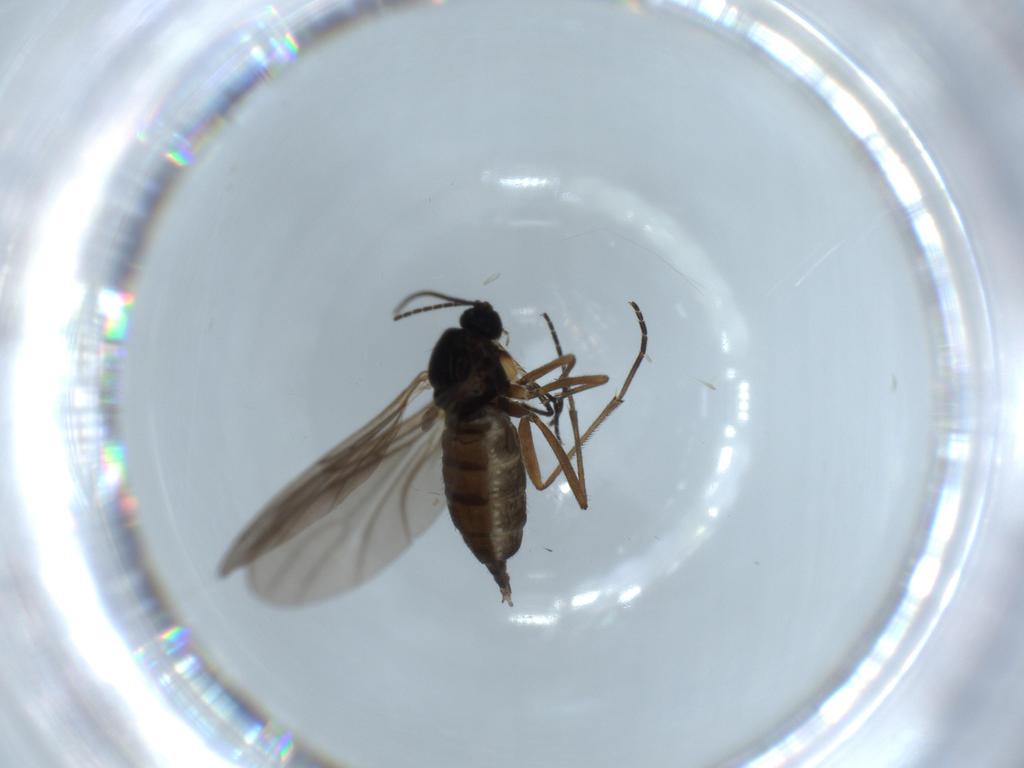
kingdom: Animalia
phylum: Arthropoda
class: Insecta
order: Diptera
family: Sciaridae
